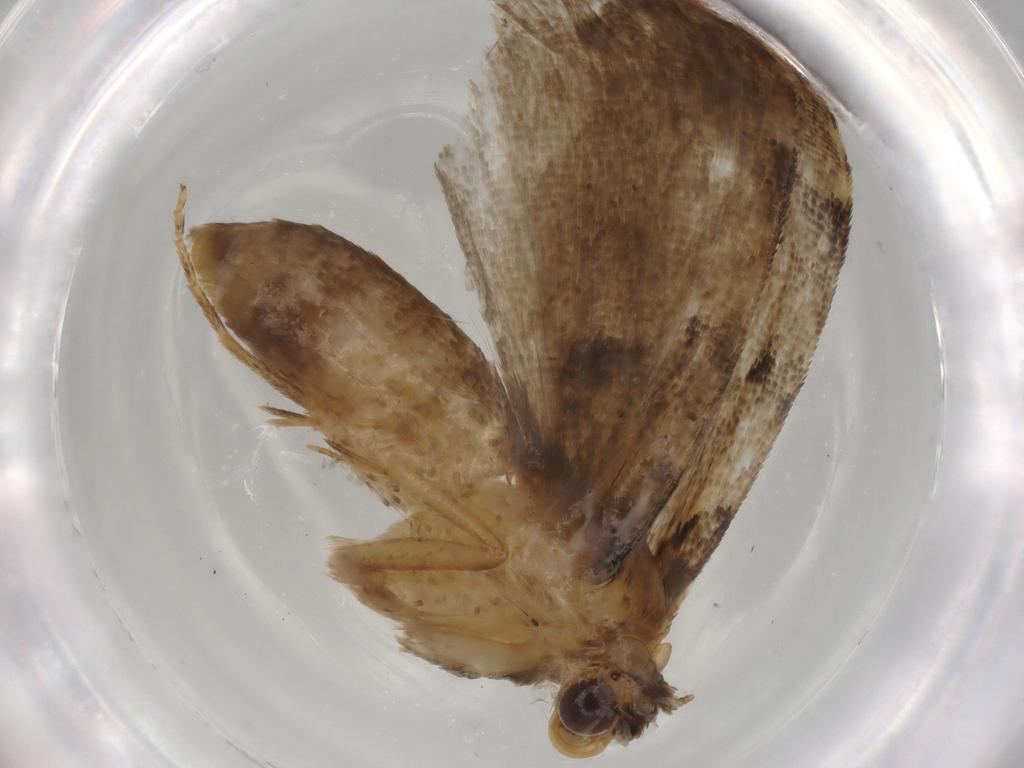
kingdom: Animalia
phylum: Arthropoda
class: Insecta
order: Lepidoptera
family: Erebidae
